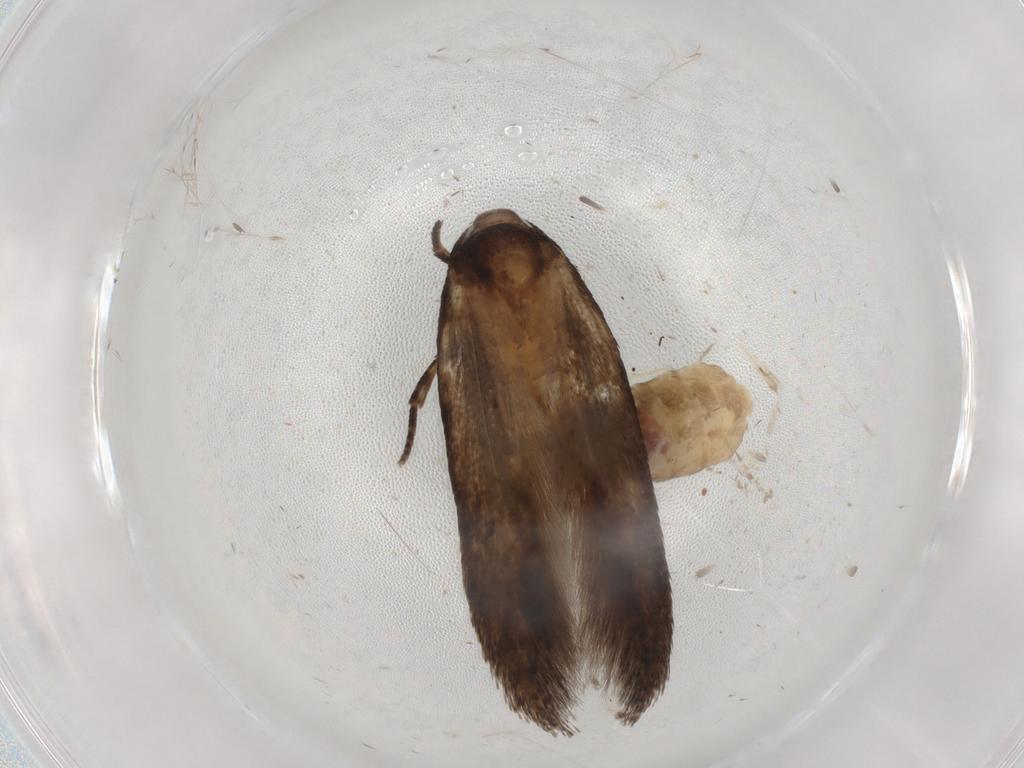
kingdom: Animalia
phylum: Arthropoda
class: Insecta
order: Lepidoptera
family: Cosmopterigidae
